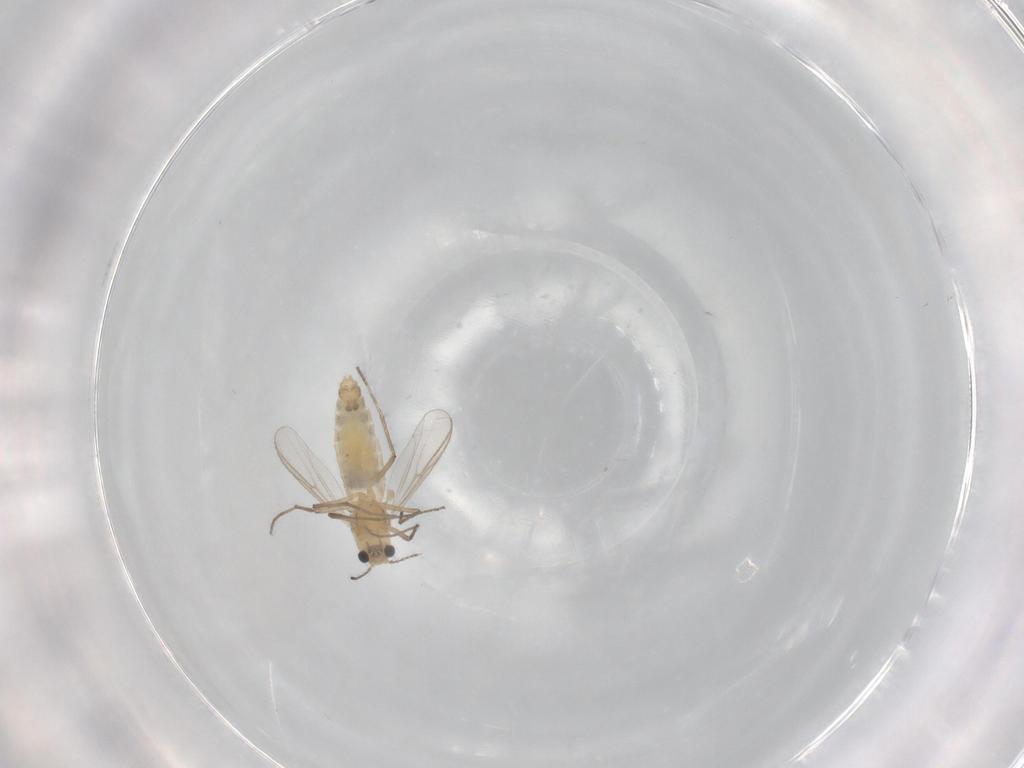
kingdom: Animalia
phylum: Arthropoda
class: Insecta
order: Diptera
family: Chironomidae
